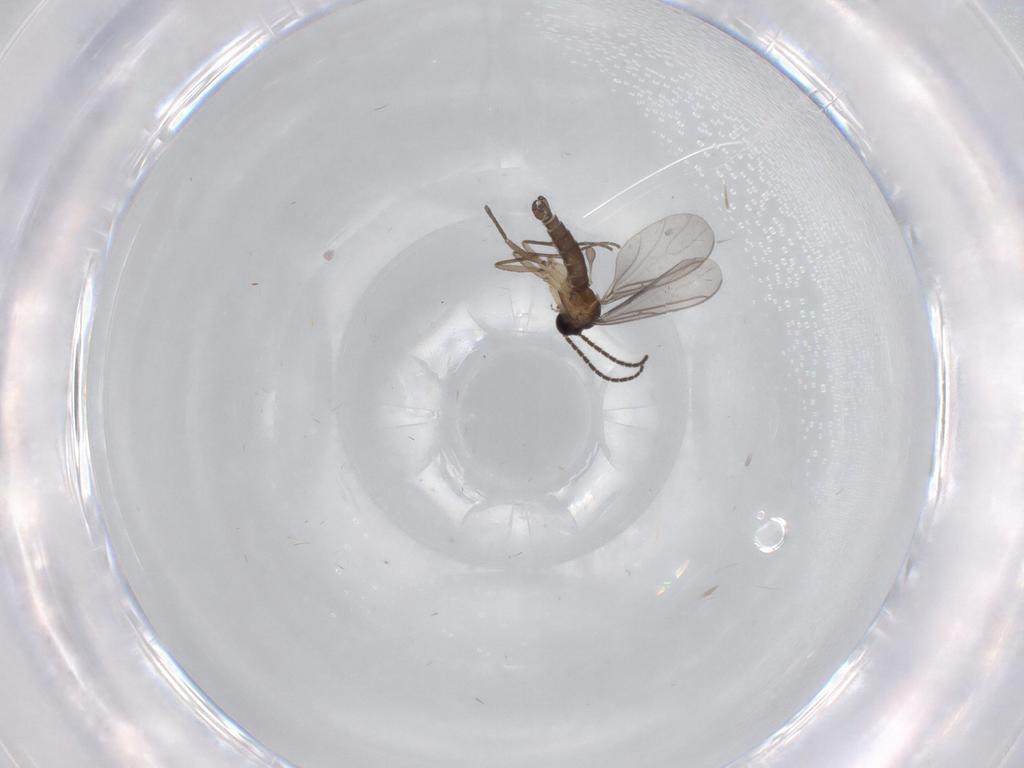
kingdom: Animalia
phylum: Arthropoda
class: Insecta
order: Diptera
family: Sciaridae
